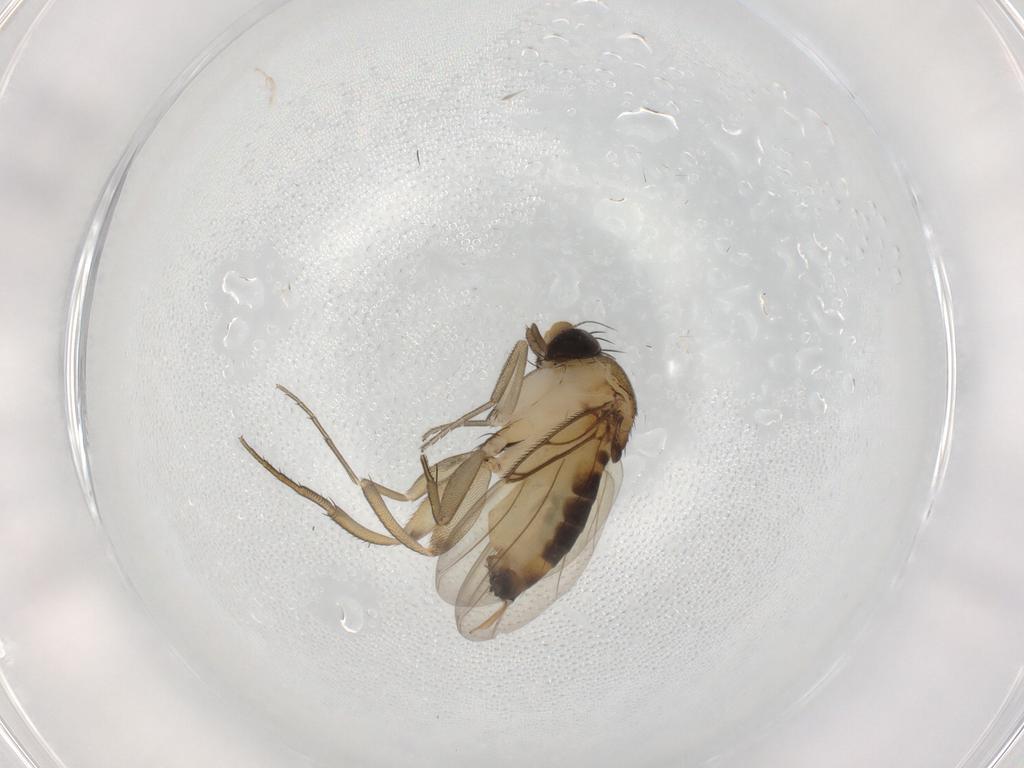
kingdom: Animalia
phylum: Arthropoda
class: Insecta
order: Diptera
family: Phoridae
